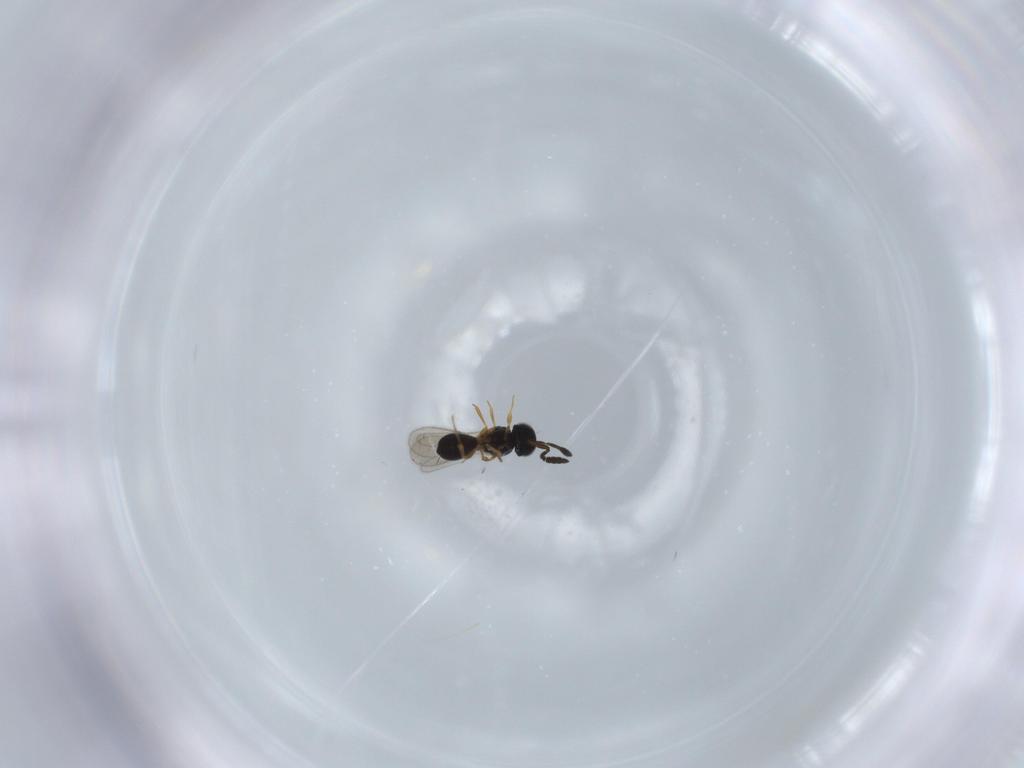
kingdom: Animalia
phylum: Arthropoda
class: Insecta
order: Hymenoptera
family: Scelionidae
